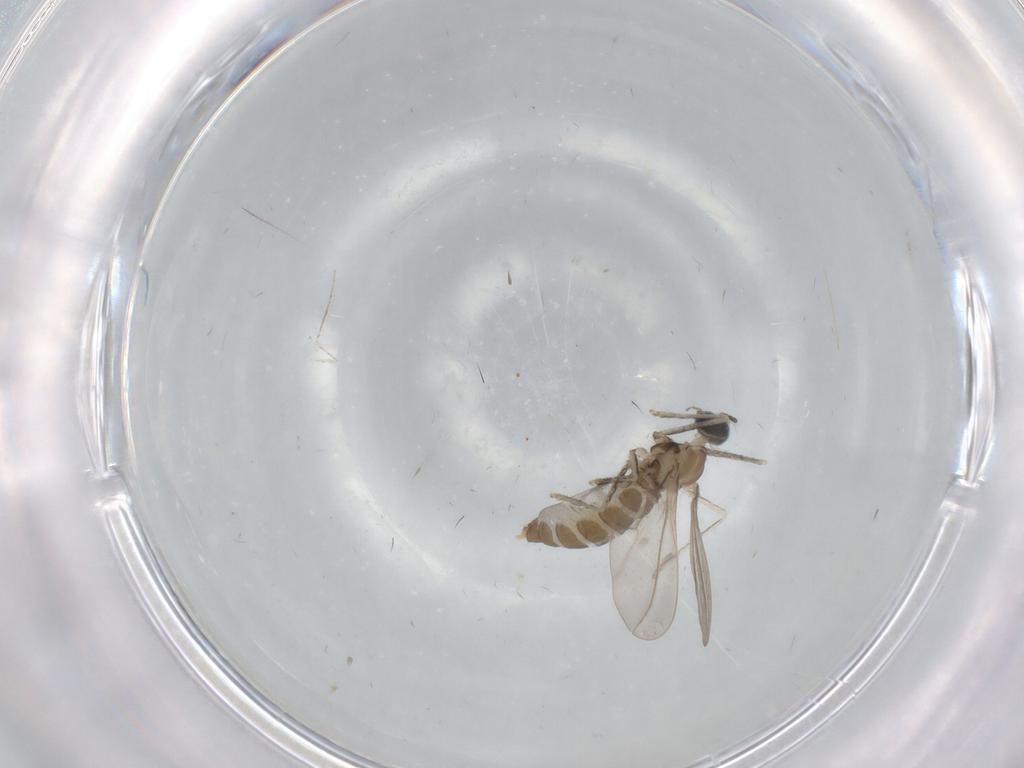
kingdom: Animalia
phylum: Arthropoda
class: Insecta
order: Diptera
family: Cecidomyiidae
